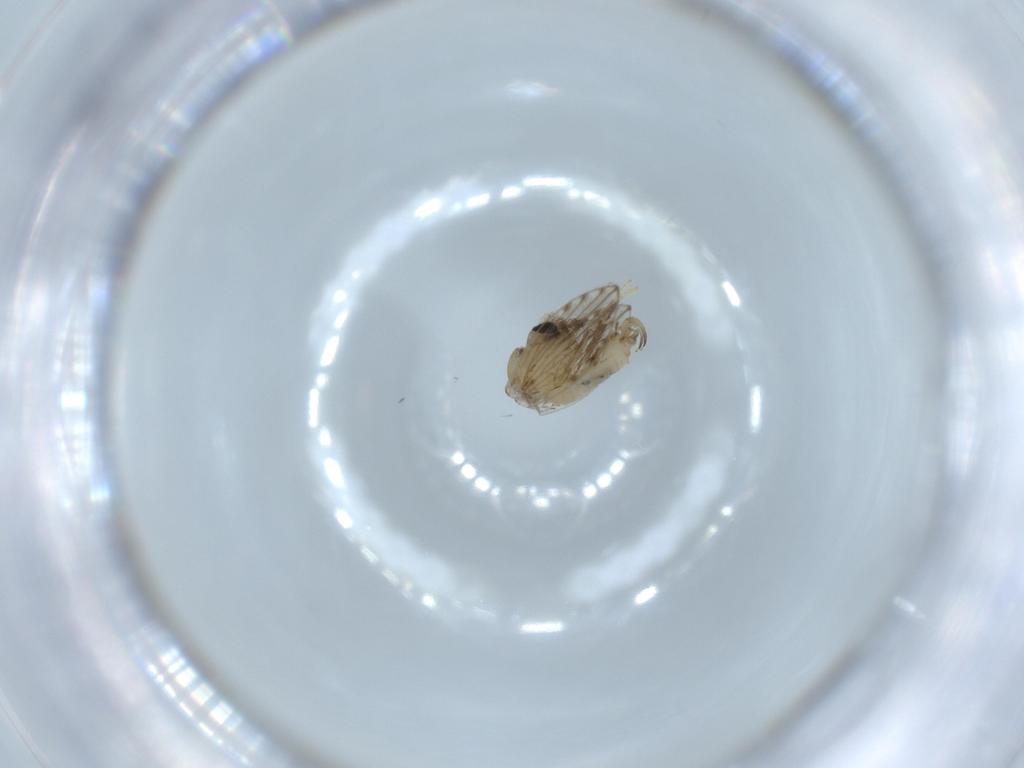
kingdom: Animalia
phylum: Arthropoda
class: Insecta
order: Diptera
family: Psychodidae
